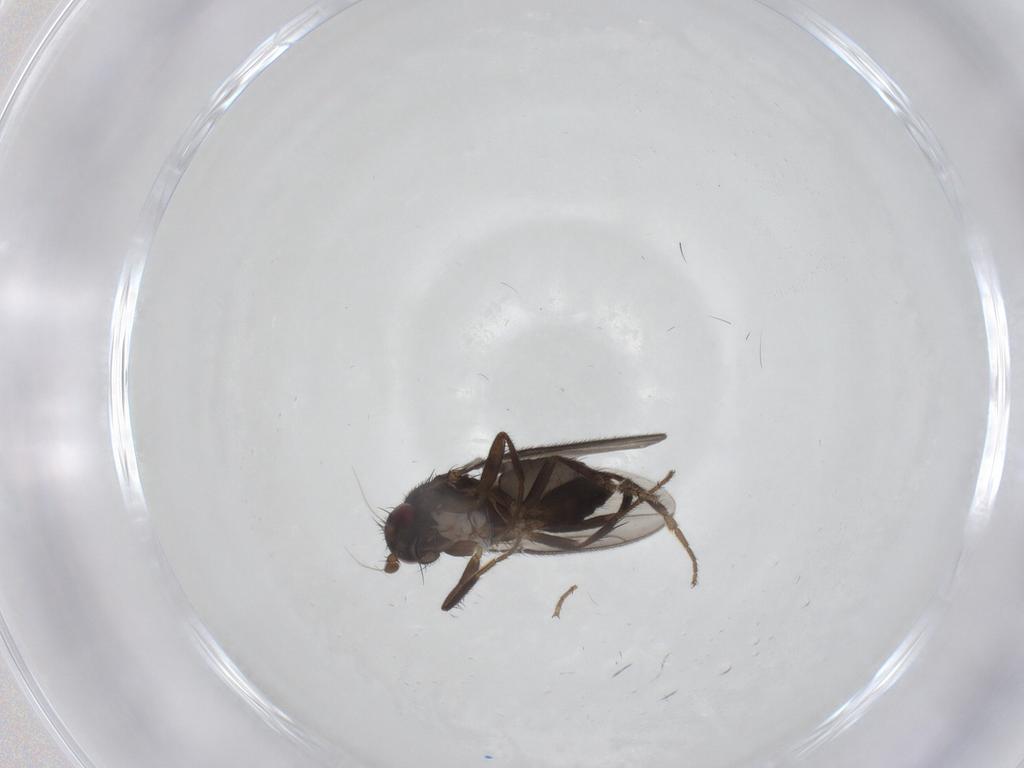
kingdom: Animalia
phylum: Arthropoda
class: Insecta
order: Diptera
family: Sphaeroceridae
